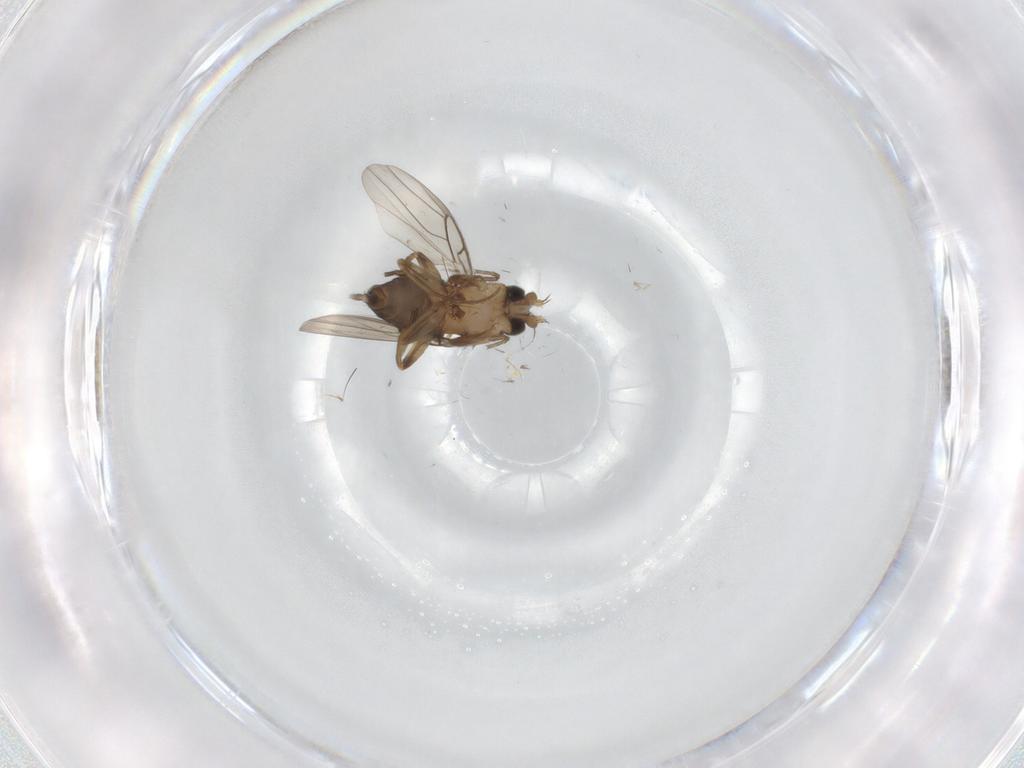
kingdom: Animalia
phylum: Arthropoda
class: Insecta
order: Diptera
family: Phoridae
